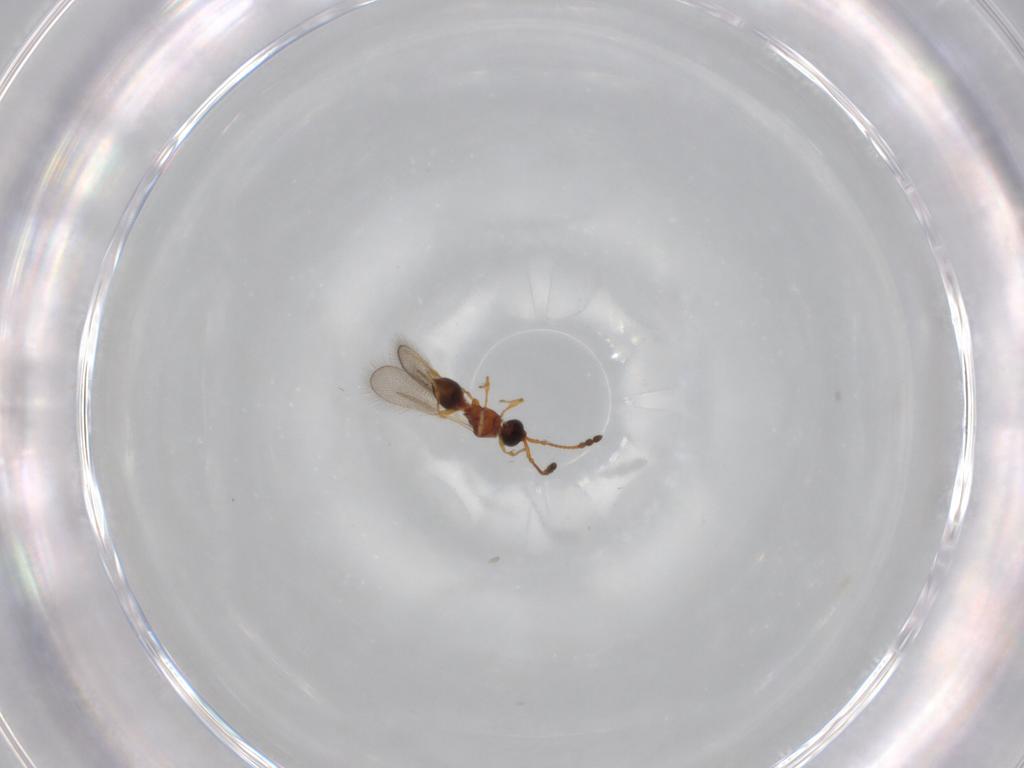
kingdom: Animalia
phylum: Arthropoda
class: Insecta
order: Hymenoptera
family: Diapriidae
